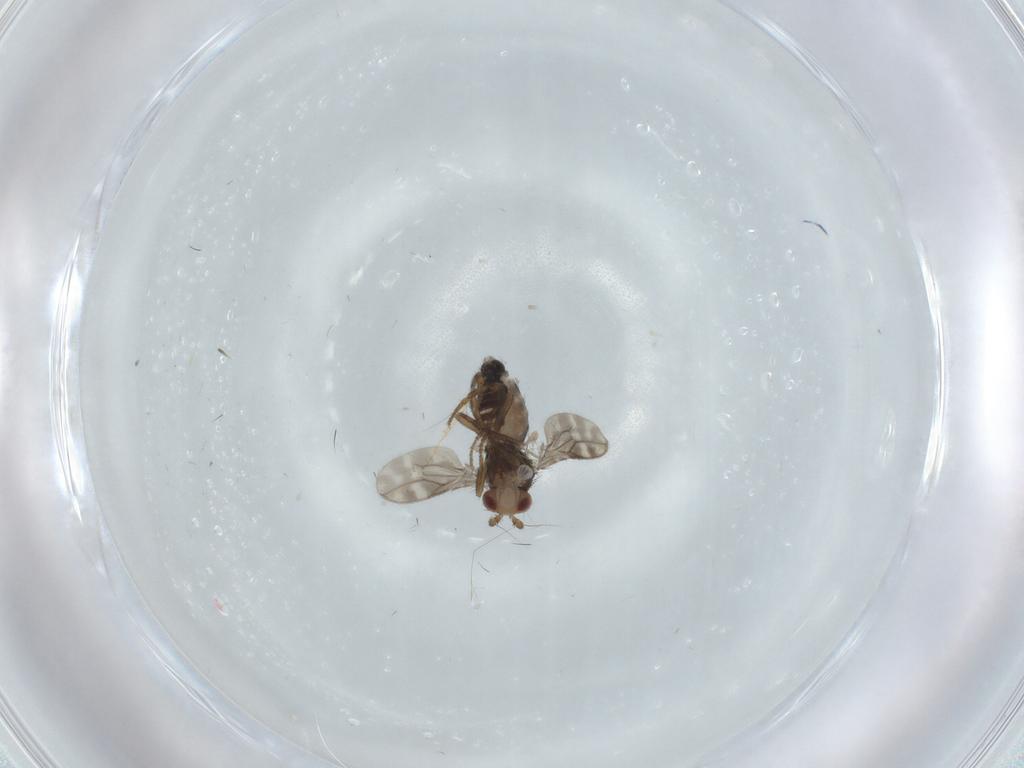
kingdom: Animalia
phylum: Arthropoda
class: Insecta
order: Diptera
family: Sphaeroceridae
